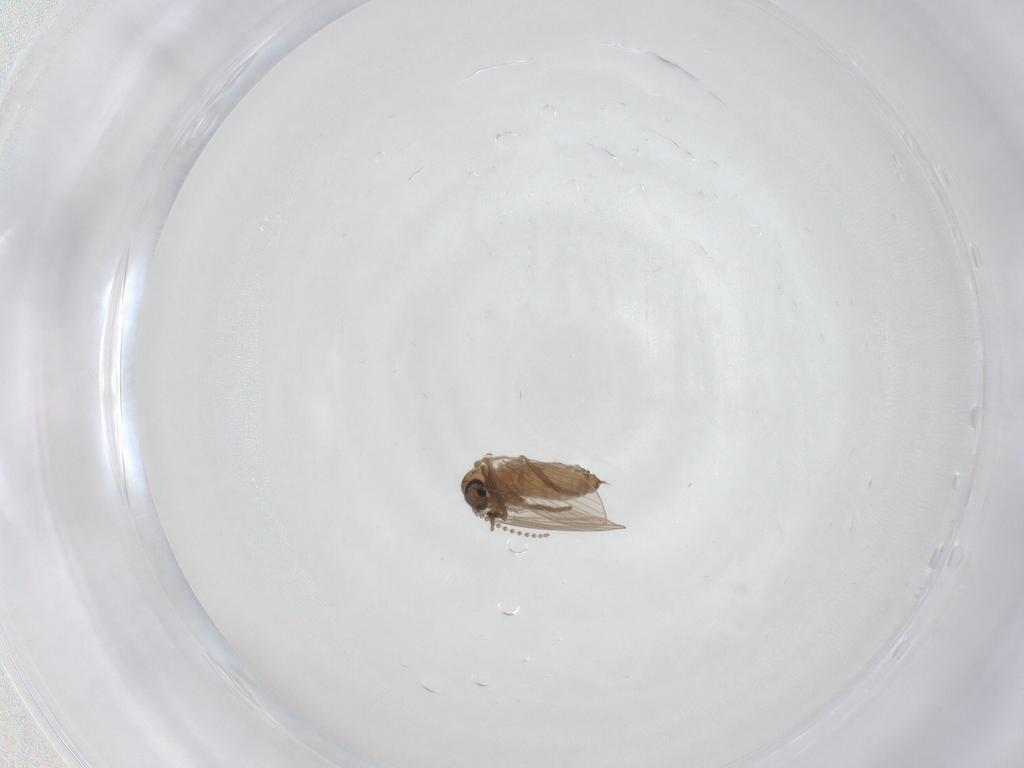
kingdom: Animalia
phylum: Arthropoda
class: Insecta
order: Diptera
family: Psychodidae
